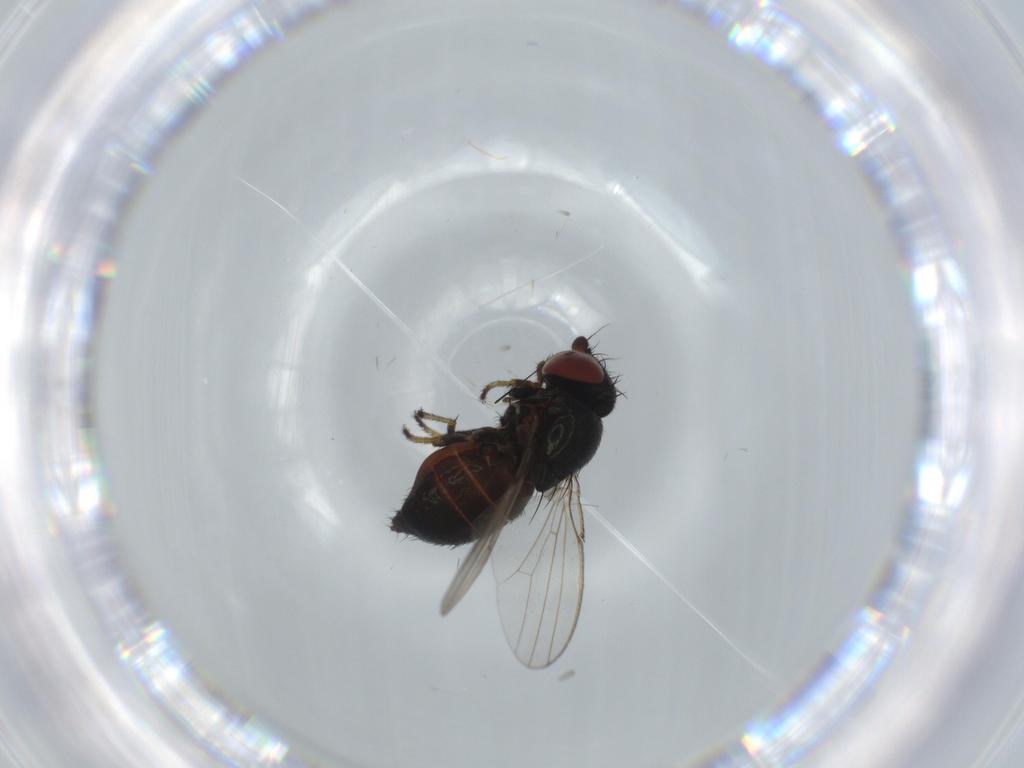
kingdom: Animalia
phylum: Arthropoda
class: Insecta
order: Diptera
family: Milichiidae
